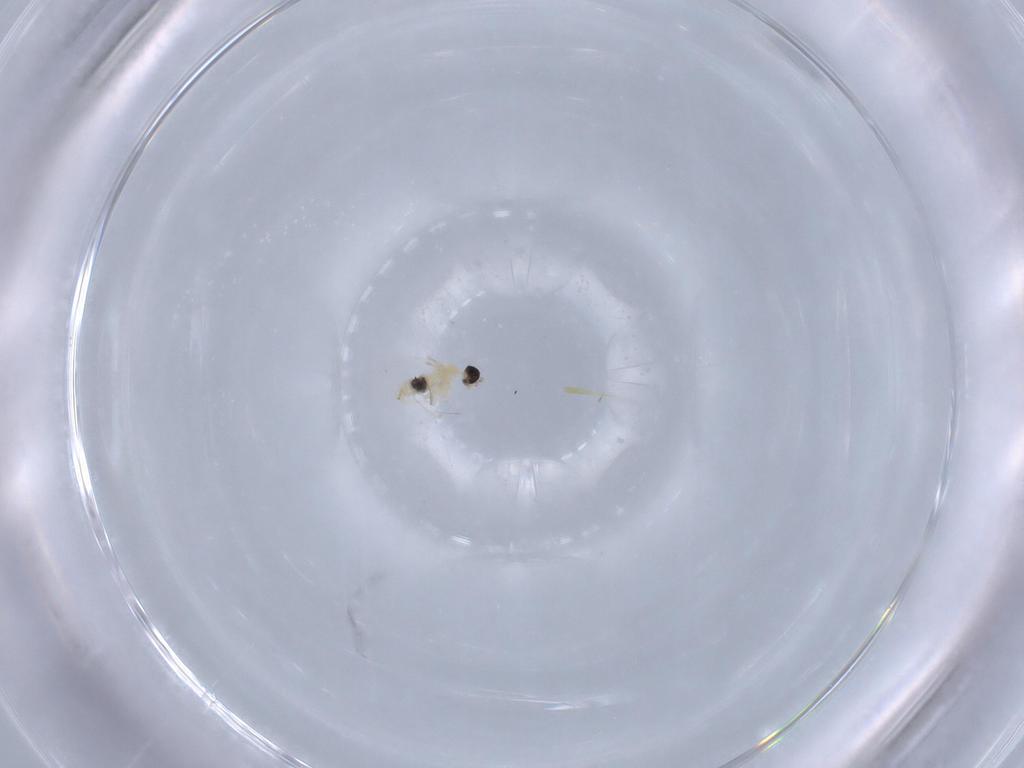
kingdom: Animalia
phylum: Arthropoda
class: Insecta
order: Diptera
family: Cecidomyiidae
